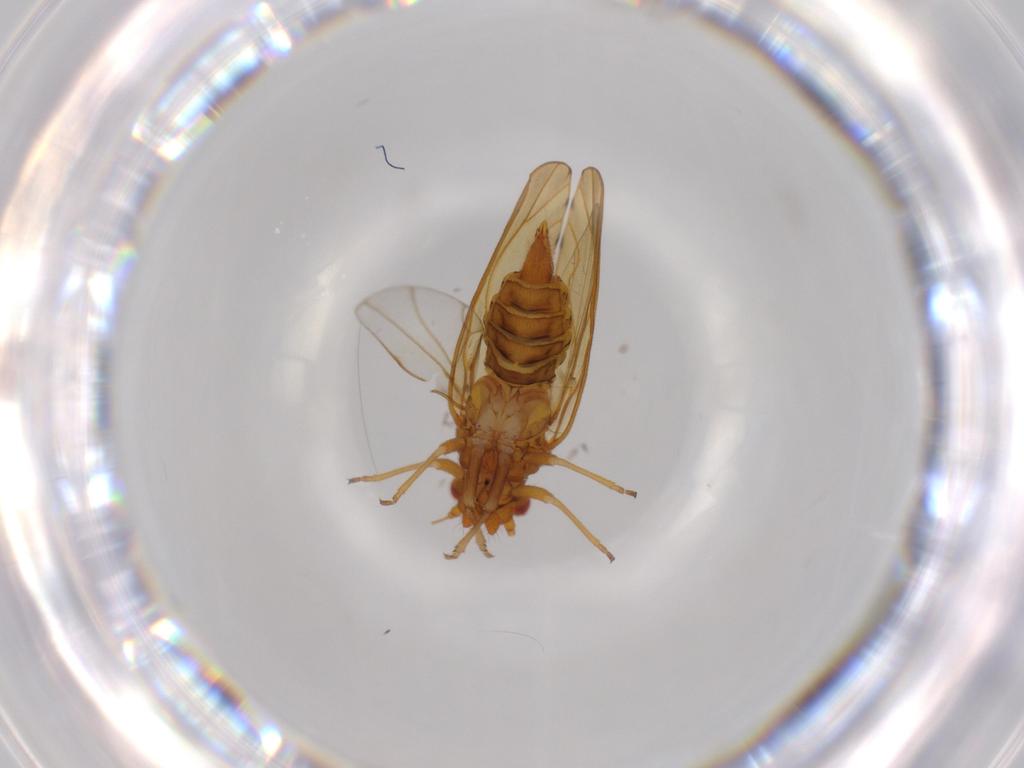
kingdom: Animalia
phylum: Arthropoda
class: Insecta
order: Hemiptera
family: Psylloidea_incertae_sedis
